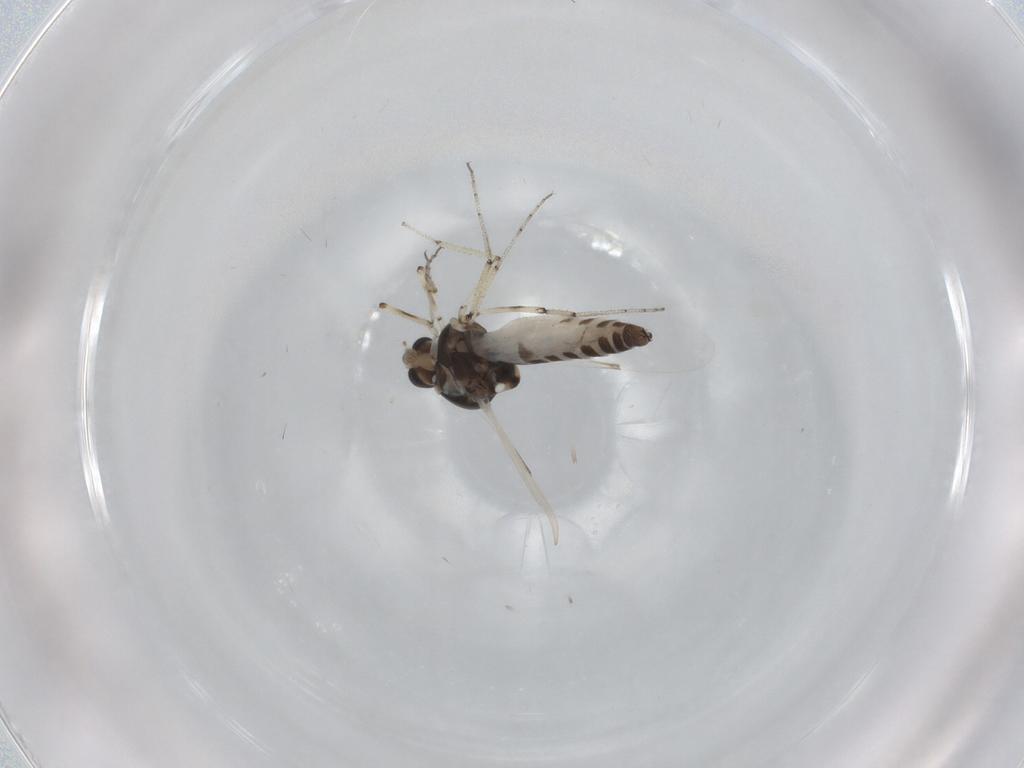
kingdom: Animalia
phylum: Arthropoda
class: Insecta
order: Diptera
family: Ceratopogonidae
